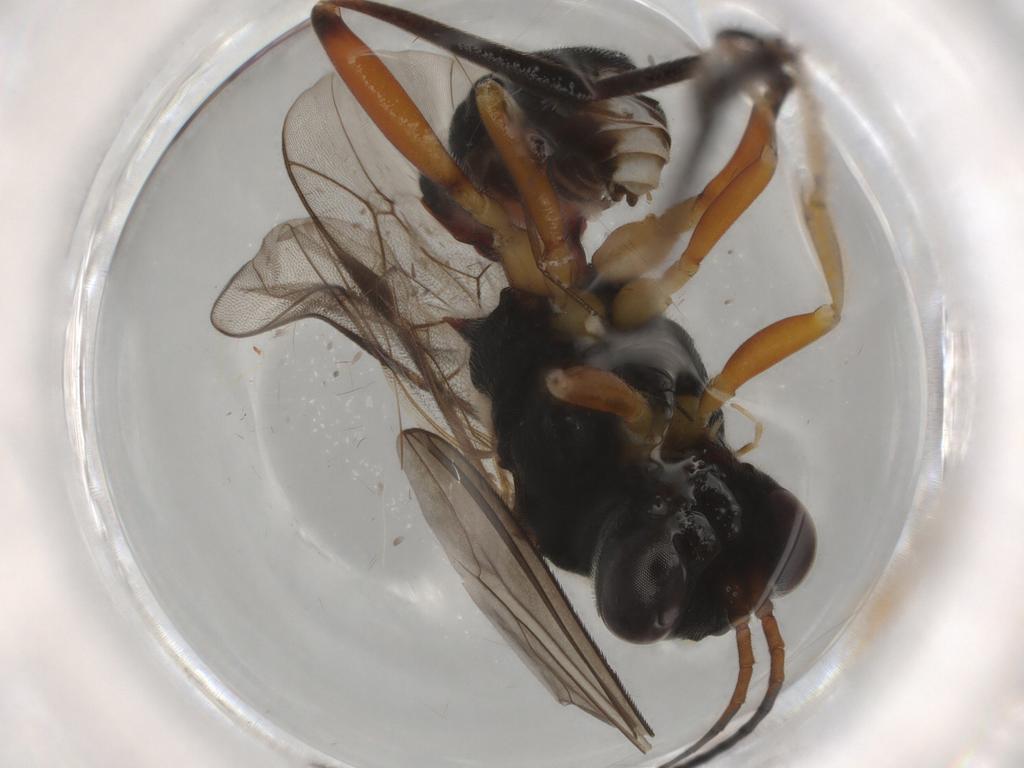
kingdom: Animalia
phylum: Arthropoda
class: Insecta
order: Hymenoptera
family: Ichneumonidae
